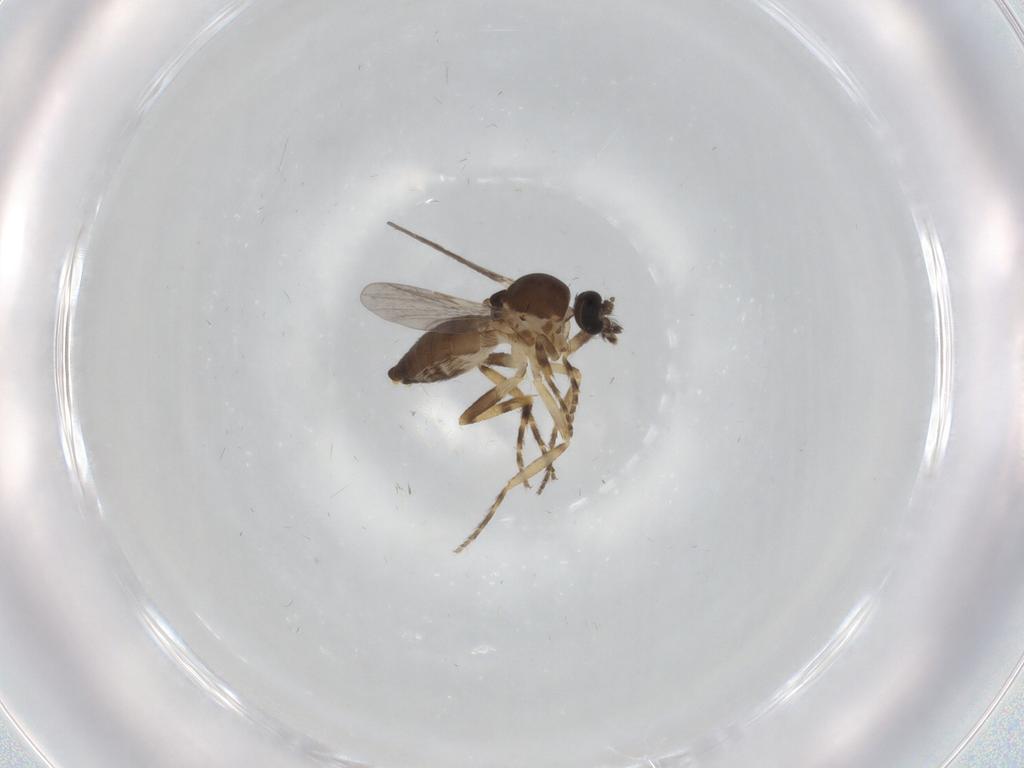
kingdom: Animalia
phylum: Arthropoda
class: Insecta
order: Diptera
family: Ceratopogonidae
